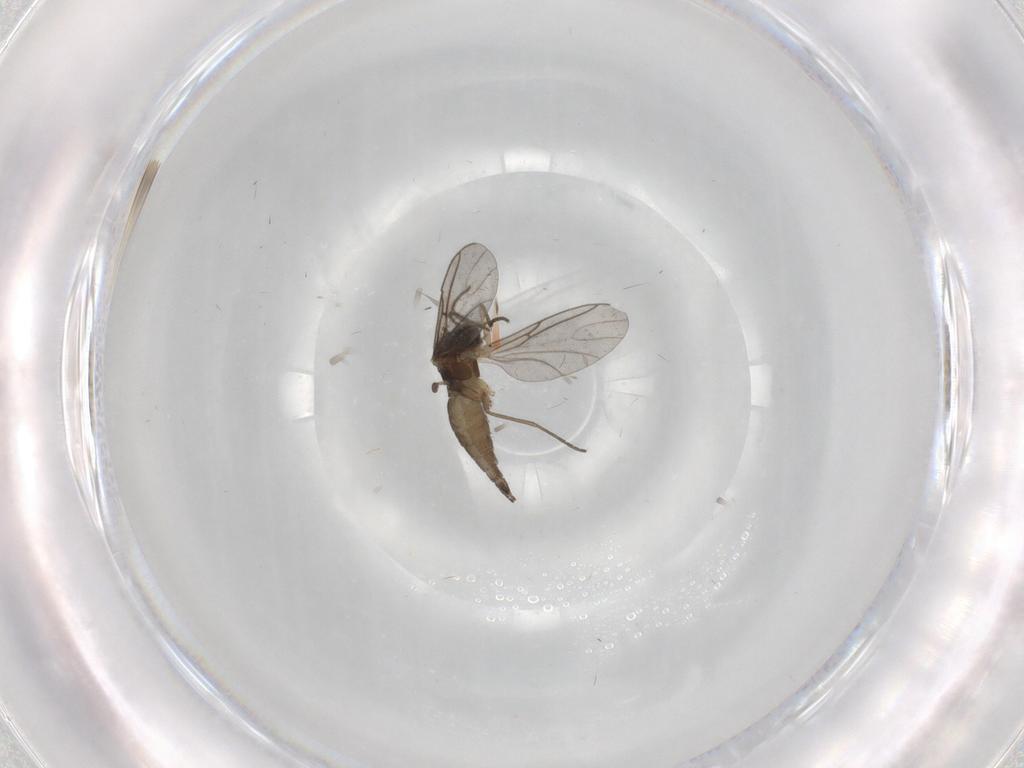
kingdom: Animalia
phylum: Arthropoda
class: Insecta
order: Diptera
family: Sciaridae
